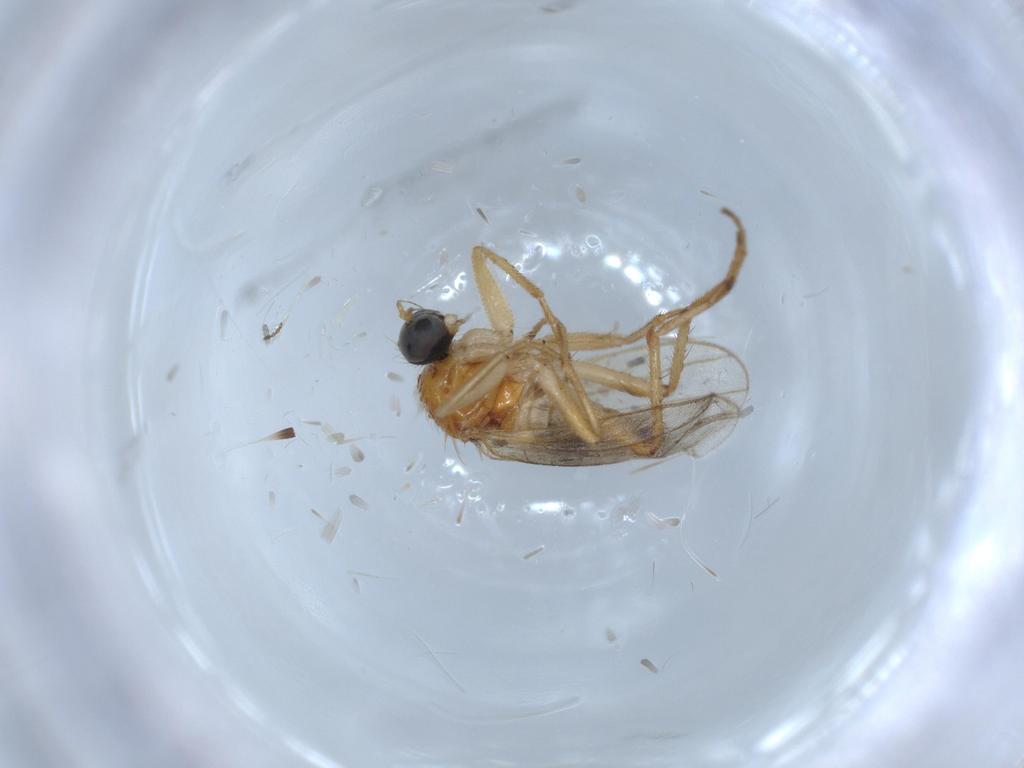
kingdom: Animalia
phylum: Arthropoda
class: Insecta
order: Diptera
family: Hybotidae
